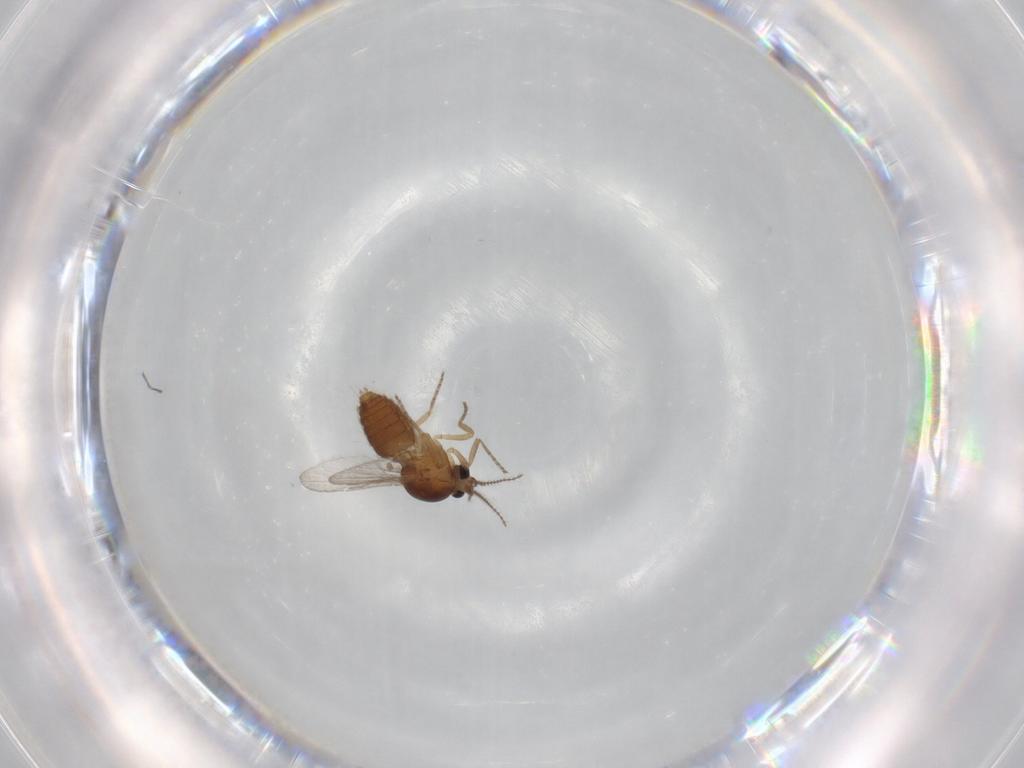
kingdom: Animalia
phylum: Arthropoda
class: Insecta
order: Diptera
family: Ceratopogonidae
